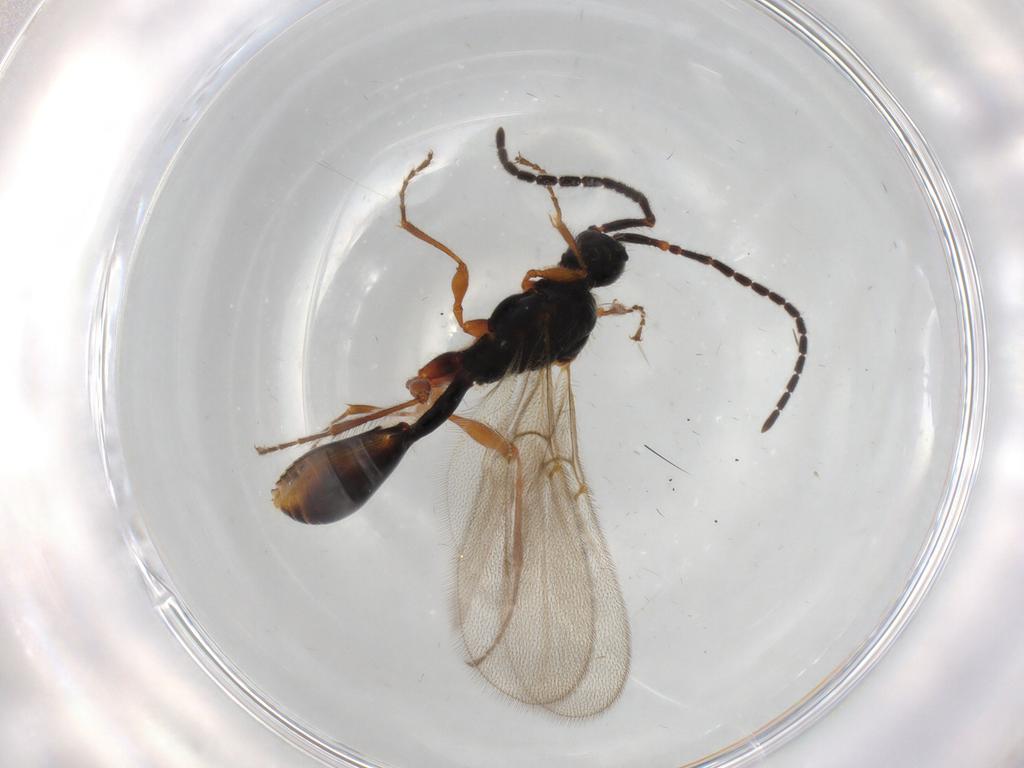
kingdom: Animalia
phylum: Arthropoda
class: Insecta
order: Hymenoptera
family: Diapriidae
